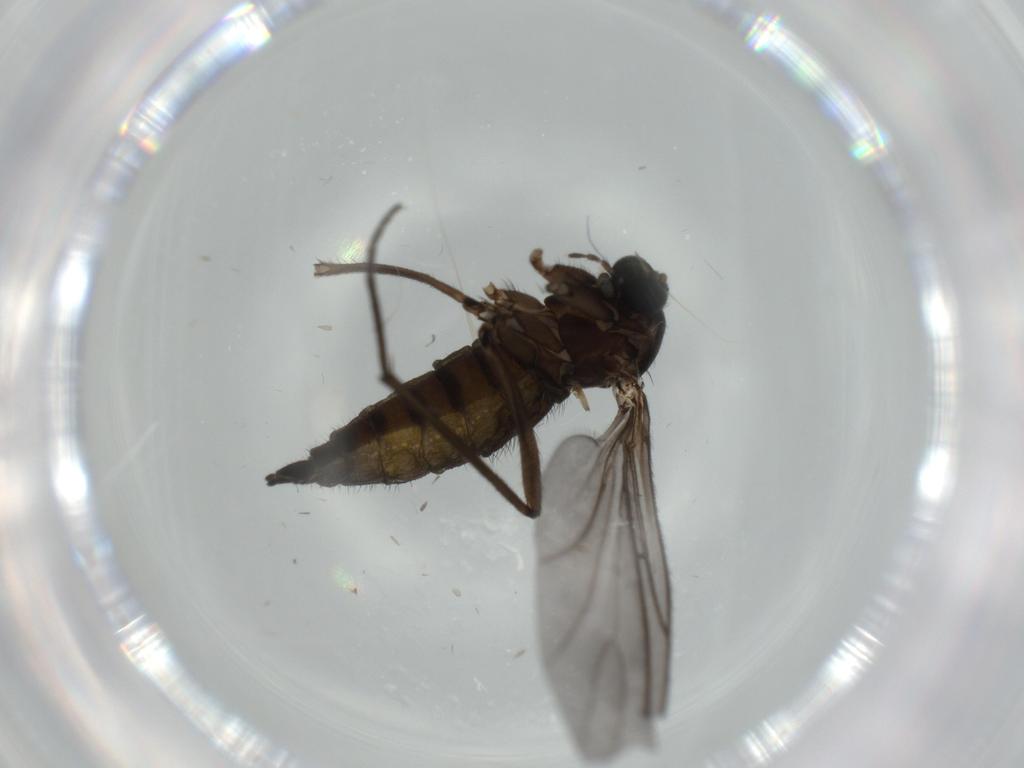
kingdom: Animalia
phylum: Arthropoda
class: Insecta
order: Diptera
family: Sciaridae
